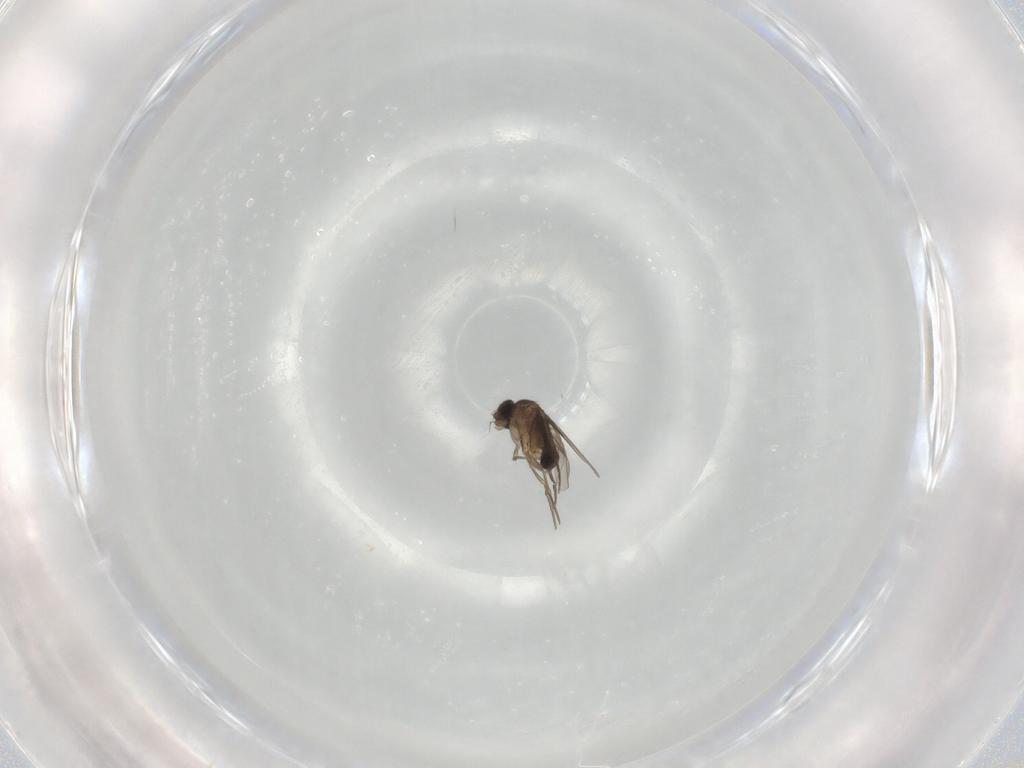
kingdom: Animalia
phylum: Arthropoda
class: Insecta
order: Diptera
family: Phoridae
